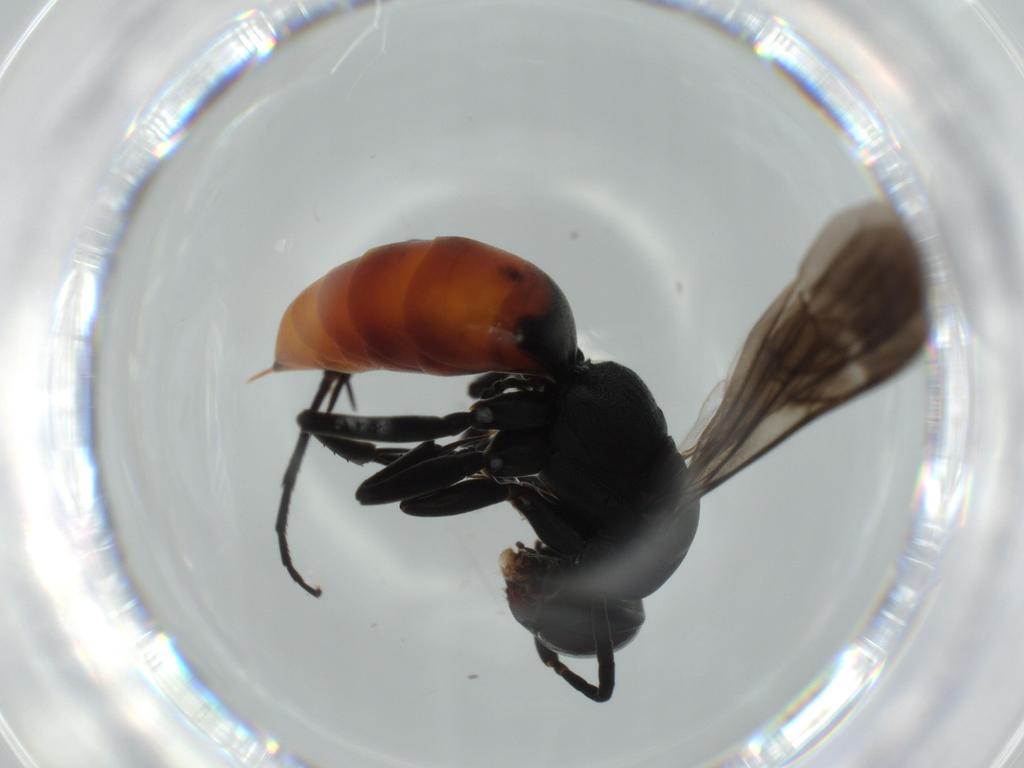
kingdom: Animalia
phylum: Arthropoda
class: Insecta
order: Hymenoptera
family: Pompilidae
